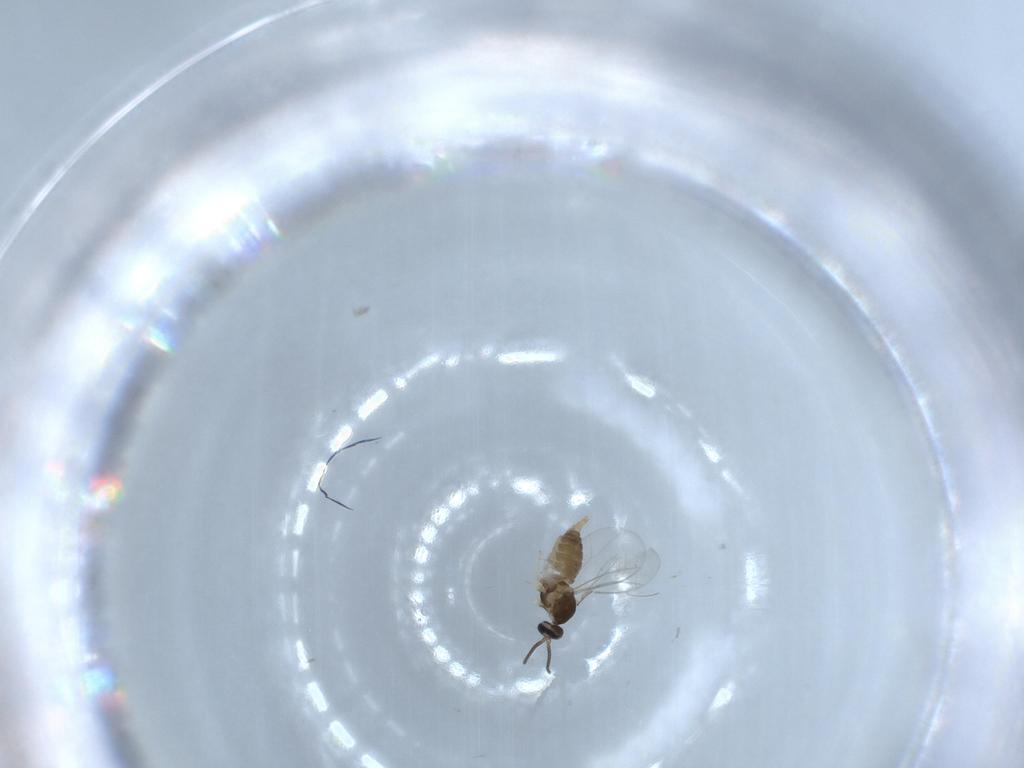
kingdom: Animalia
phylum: Arthropoda
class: Insecta
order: Diptera
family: Cecidomyiidae
